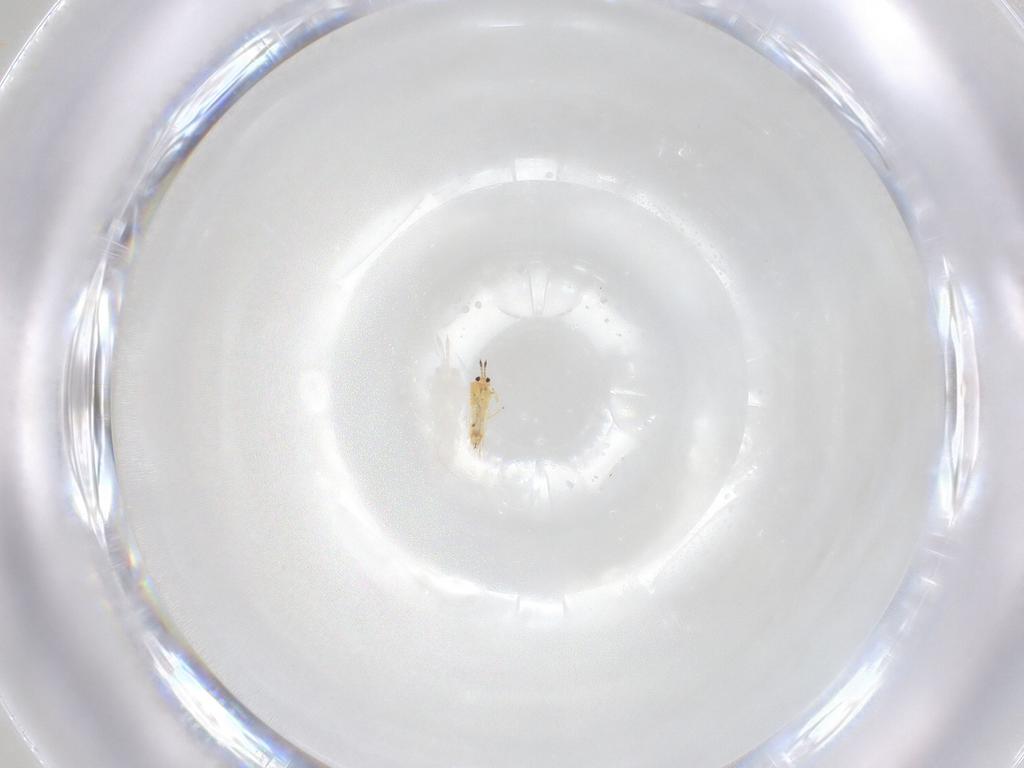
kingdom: Animalia
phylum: Arthropoda
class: Insecta
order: Thysanoptera
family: Thripidae
